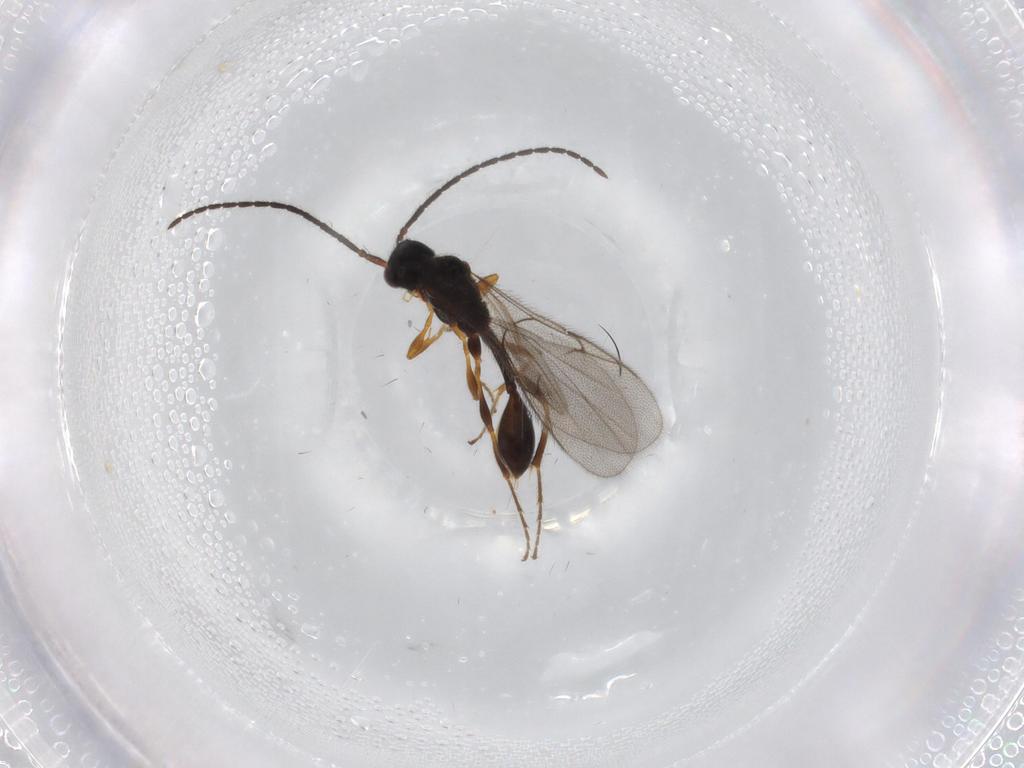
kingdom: Animalia
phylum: Arthropoda
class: Insecta
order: Hymenoptera
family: Diapriidae
